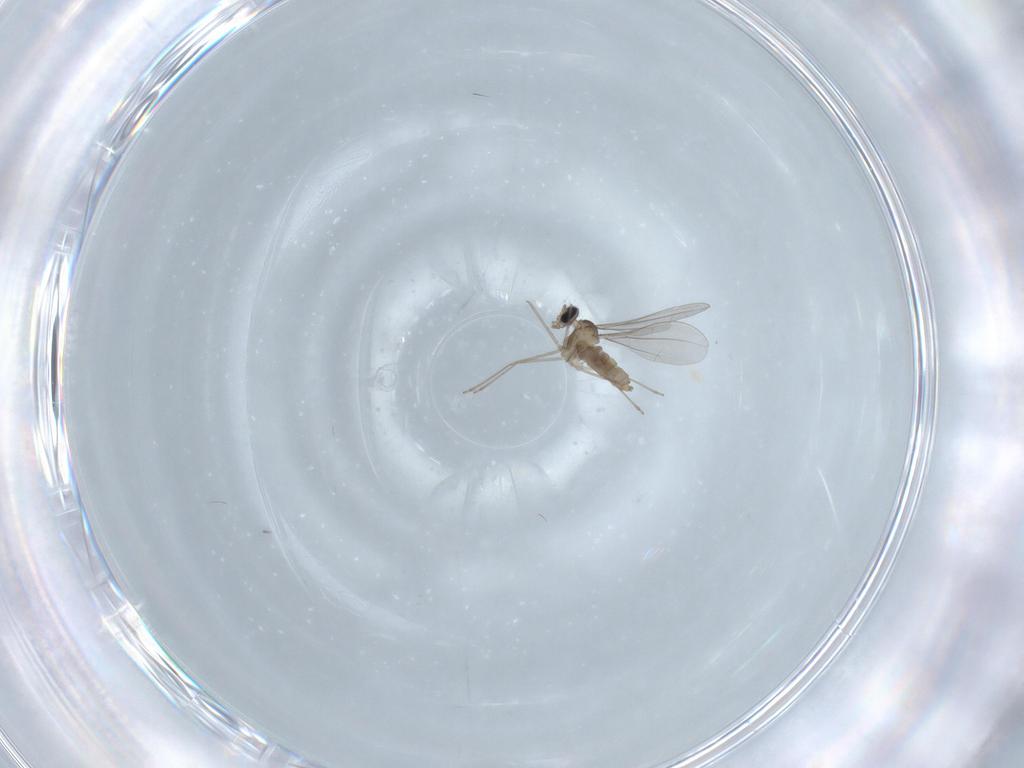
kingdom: Animalia
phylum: Arthropoda
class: Insecta
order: Diptera
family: Cecidomyiidae
